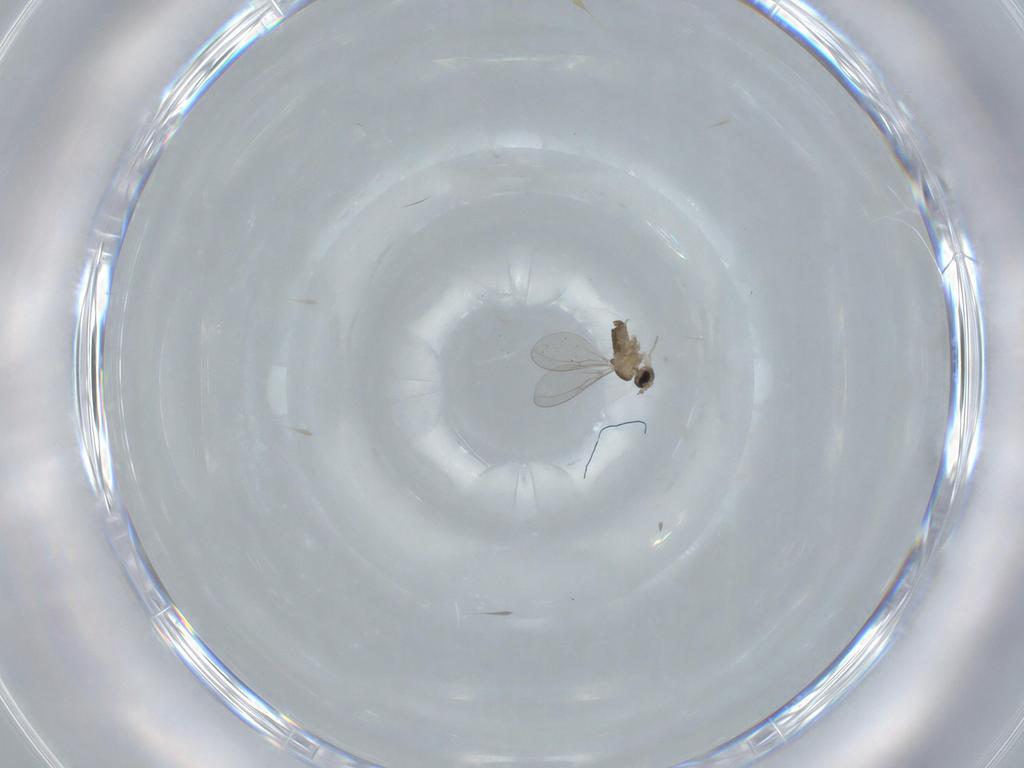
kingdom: Animalia
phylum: Arthropoda
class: Insecta
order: Diptera
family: Cecidomyiidae
